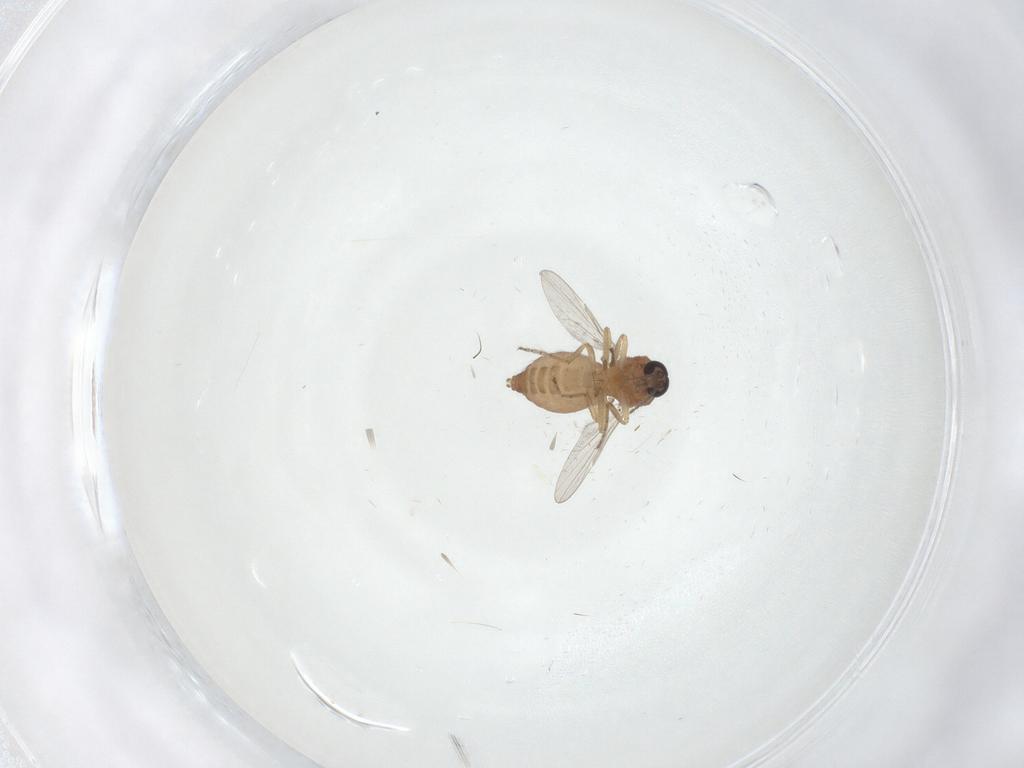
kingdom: Animalia
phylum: Arthropoda
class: Insecta
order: Diptera
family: Ceratopogonidae
